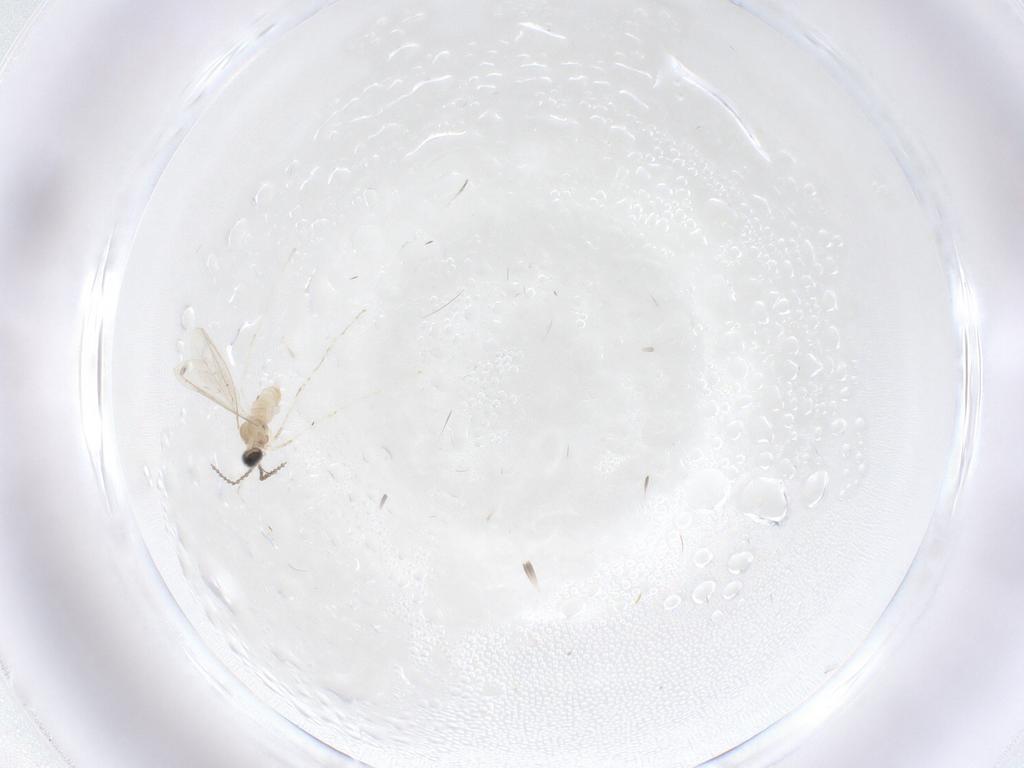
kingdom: Animalia
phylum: Arthropoda
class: Insecta
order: Diptera
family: Cecidomyiidae
